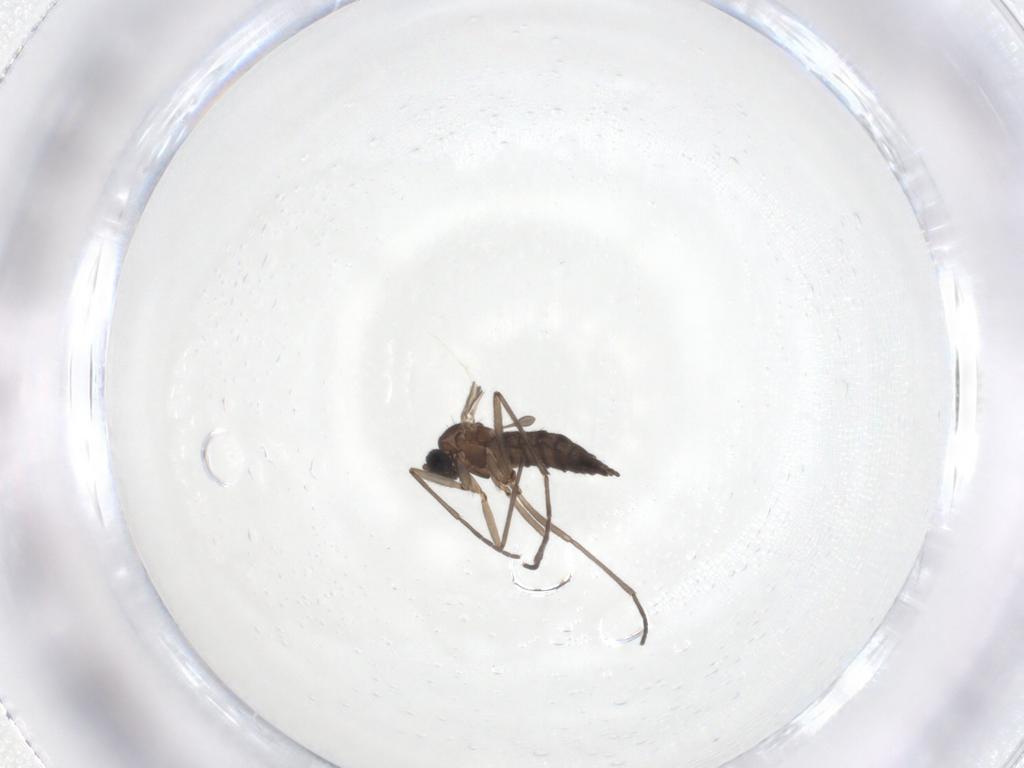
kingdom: Animalia
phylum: Arthropoda
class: Insecta
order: Diptera
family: Sciaridae
